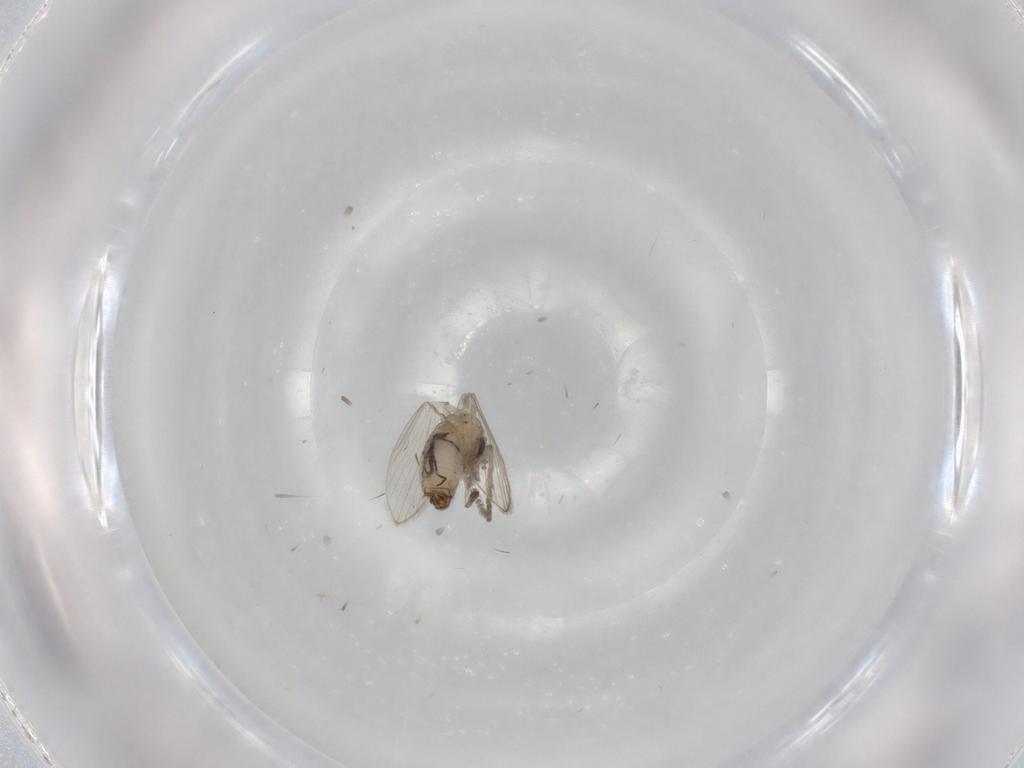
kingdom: Animalia
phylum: Arthropoda
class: Insecta
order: Diptera
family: Psychodidae
